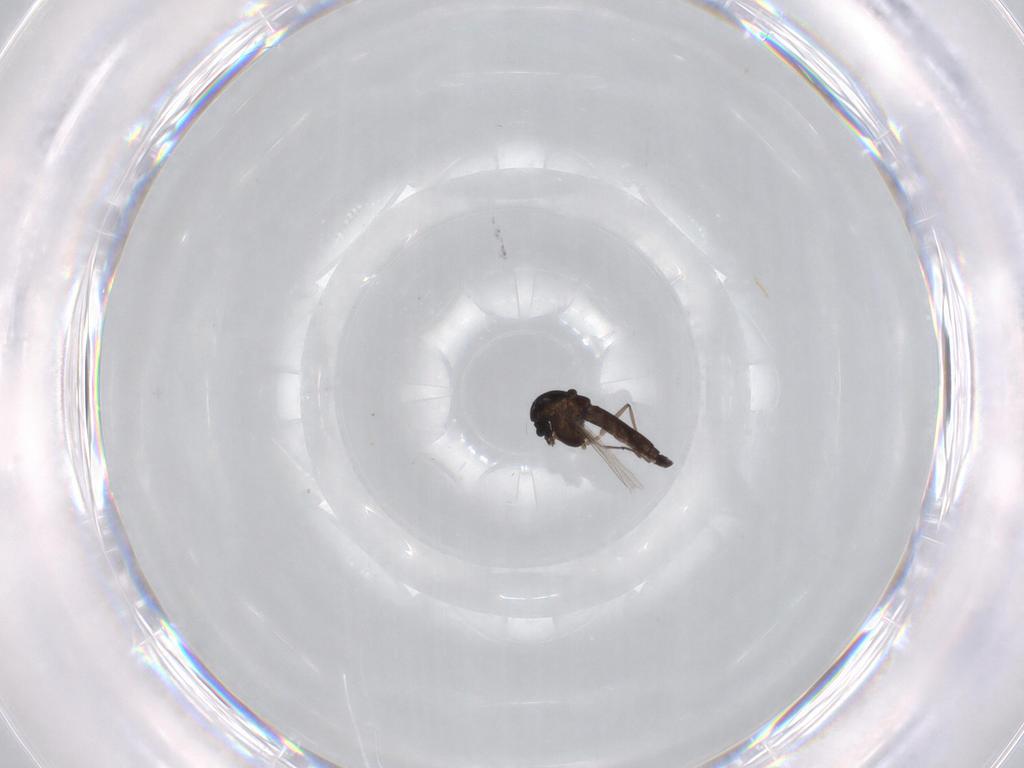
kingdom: Animalia
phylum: Arthropoda
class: Insecta
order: Diptera
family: Chironomidae
